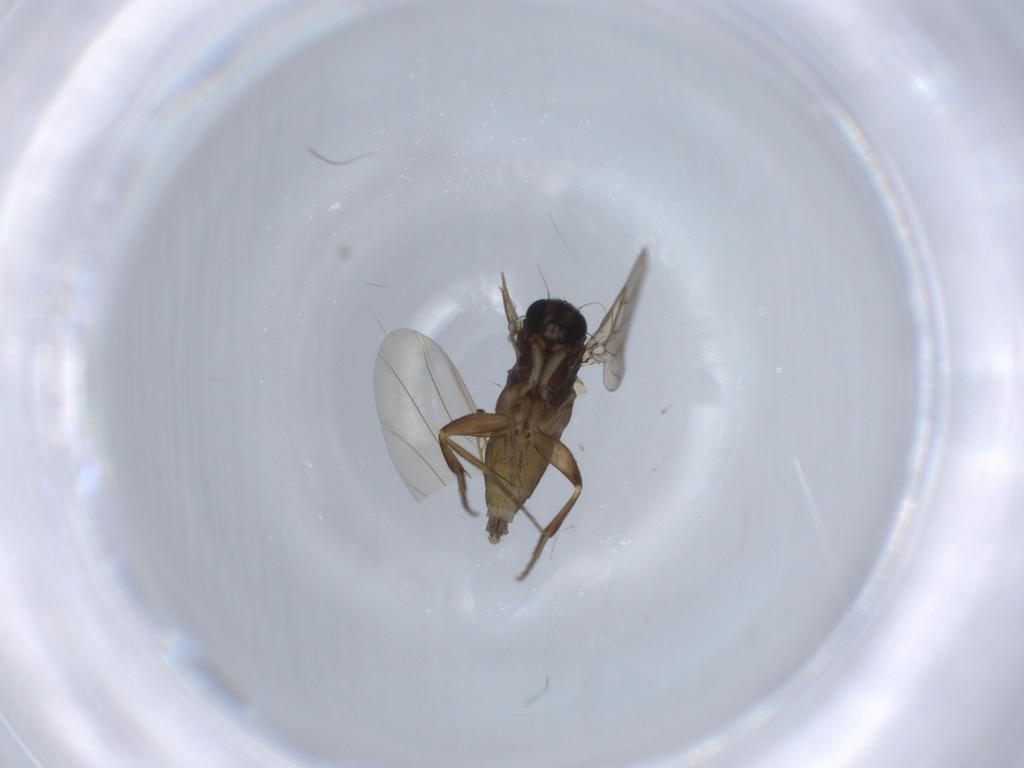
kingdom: Animalia
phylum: Arthropoda
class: Insecta
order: Diptera
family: Phoridae
